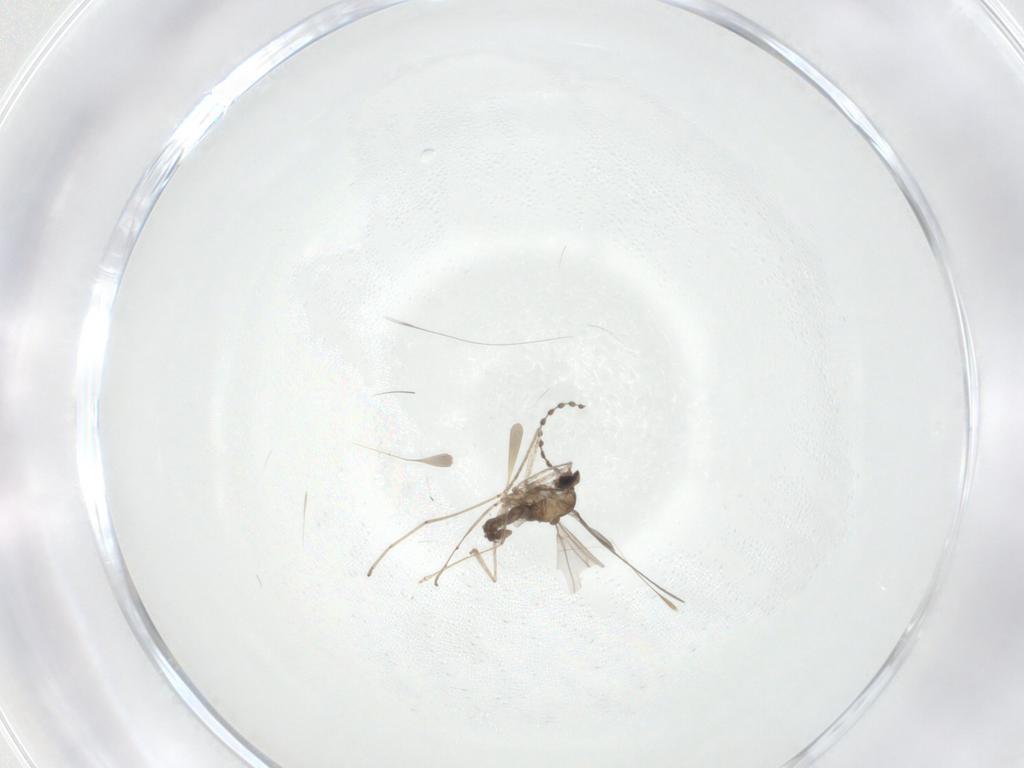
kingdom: Animalia
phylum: Arthropoda
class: Insecta
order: Diptera
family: Cecidomyiidae
